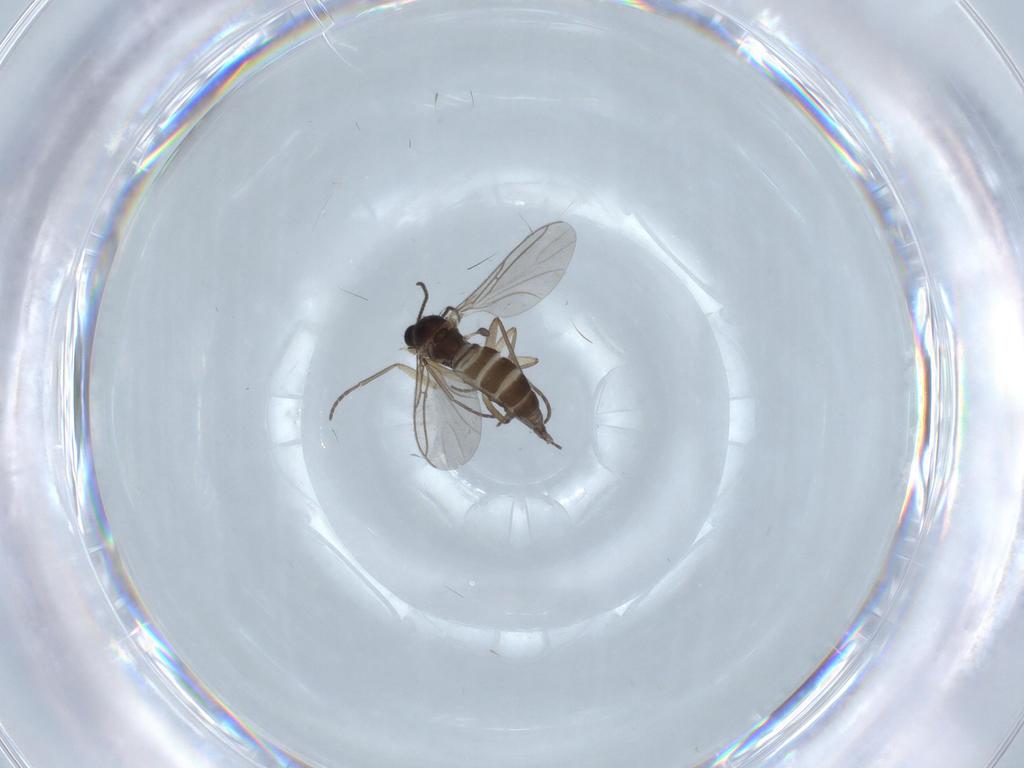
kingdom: Animalia
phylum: Arthropoda
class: Insecta
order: Diptera
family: Sciaridae
